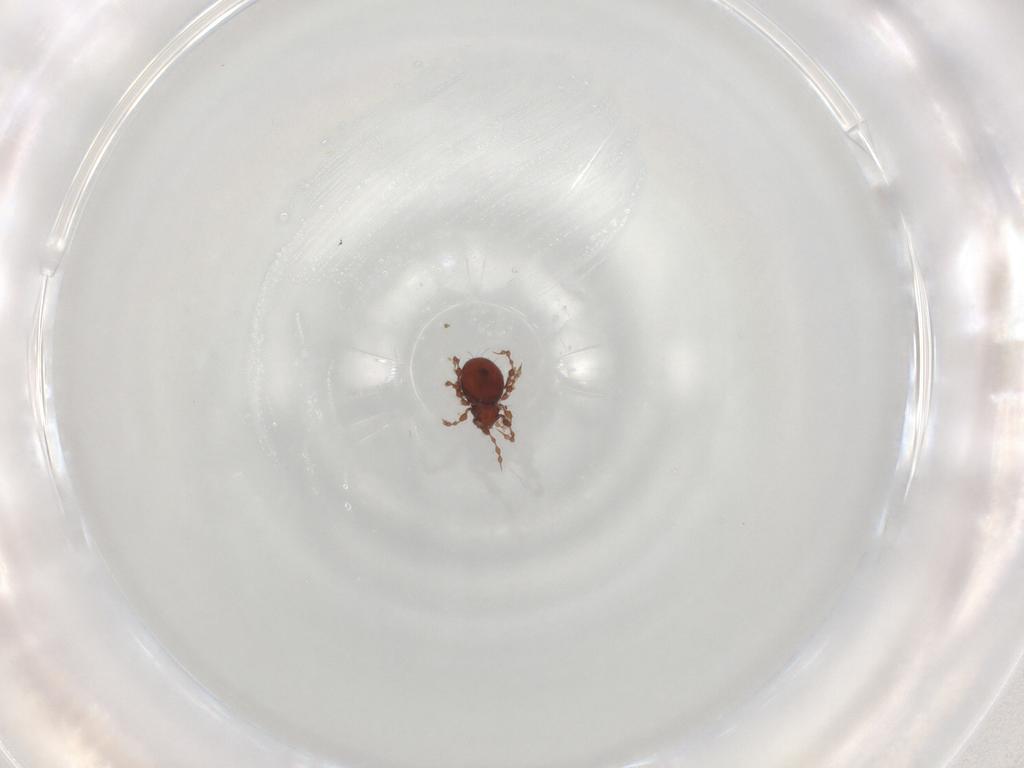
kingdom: Animalia
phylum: Arthropoda
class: Arachnida
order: Sarcoptiformes
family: Damaeidae
